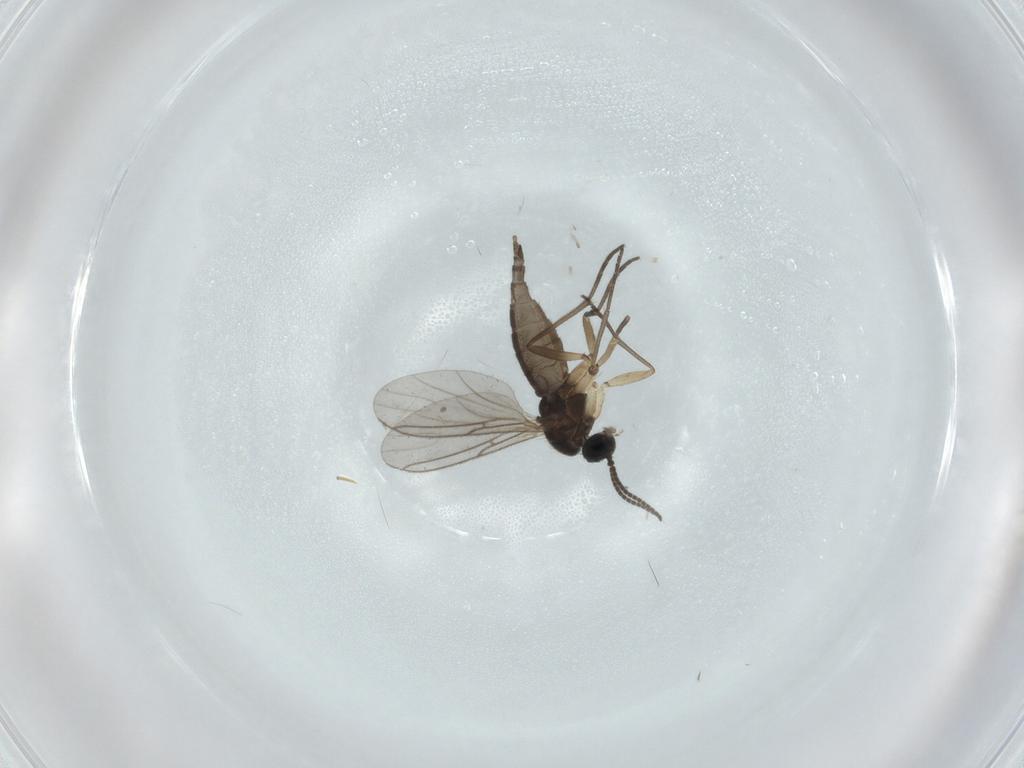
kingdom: Animalia
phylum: Arthropoda
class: Insecta
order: Diptera
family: Sciaridae
